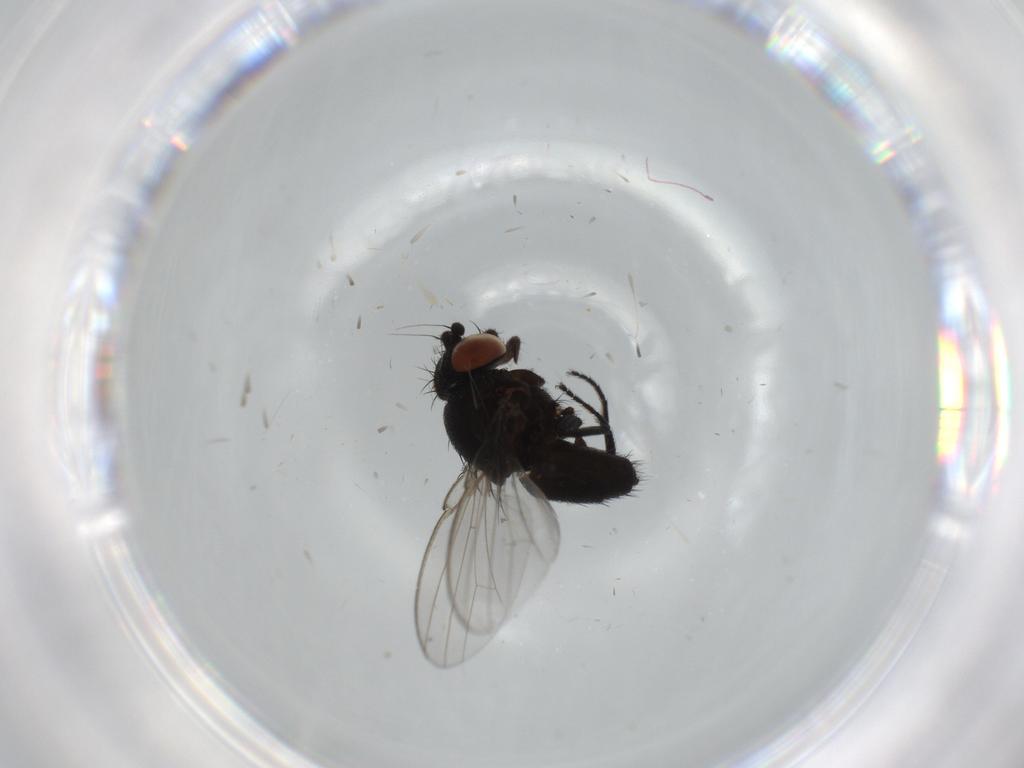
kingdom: Animalia
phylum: Arthropoda
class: Insecta
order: Diptera
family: Milichiidae
